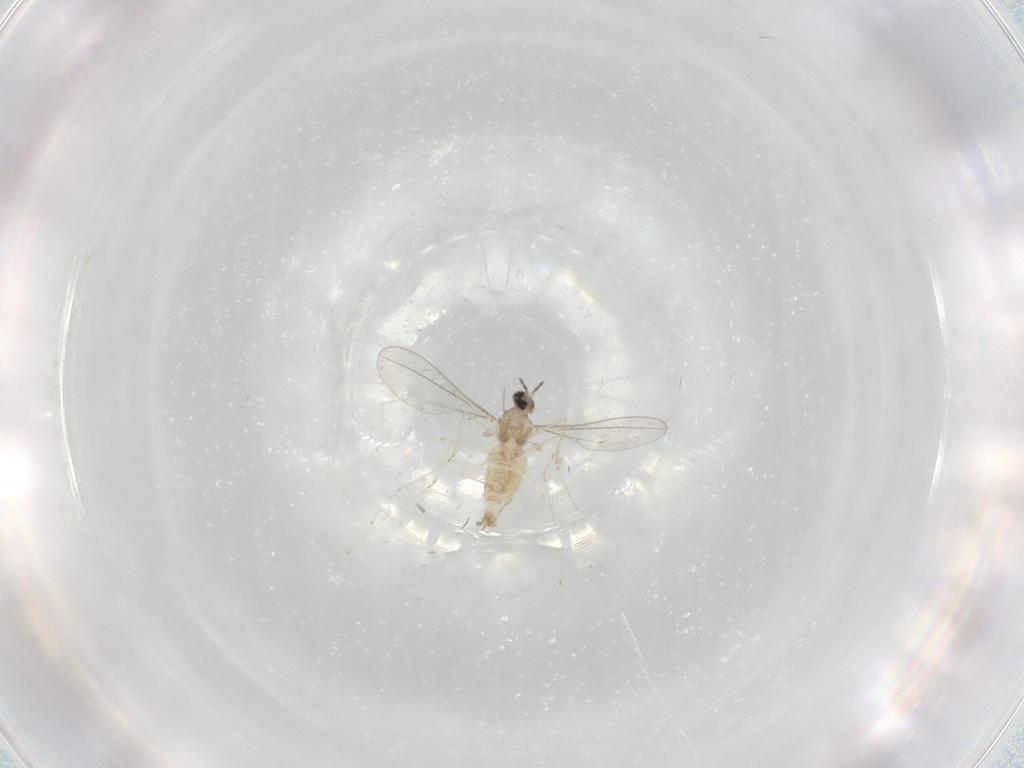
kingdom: Animalia
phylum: Arthropoda
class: Insecta
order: Diptera
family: Cecidomyiidae
